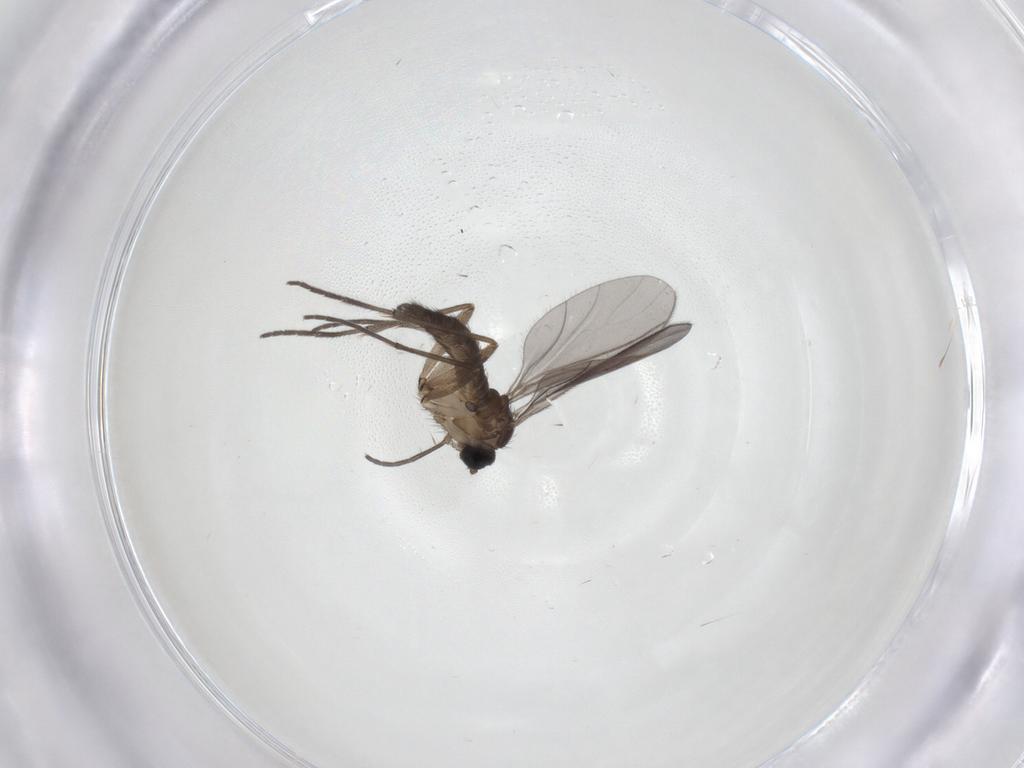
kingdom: Animalia
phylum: Arthropoda
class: Insecta
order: Diptera
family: Sciaridae
